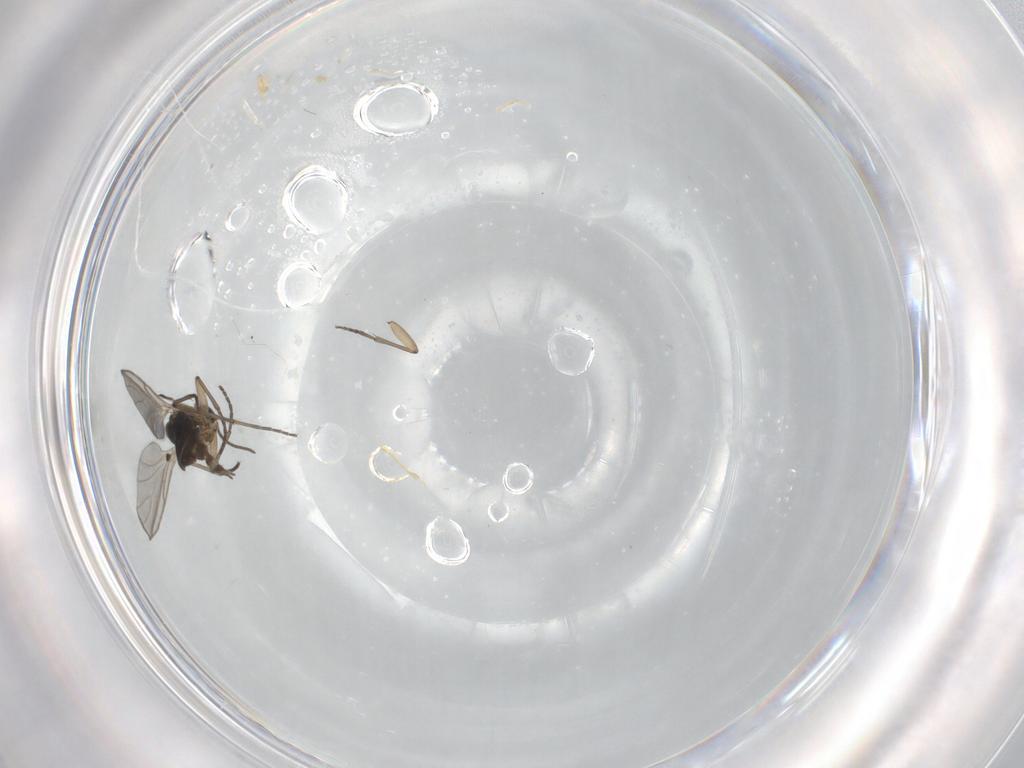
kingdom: Animalia
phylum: Arthropoda
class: Insecta
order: Diptera
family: Sciaridae
